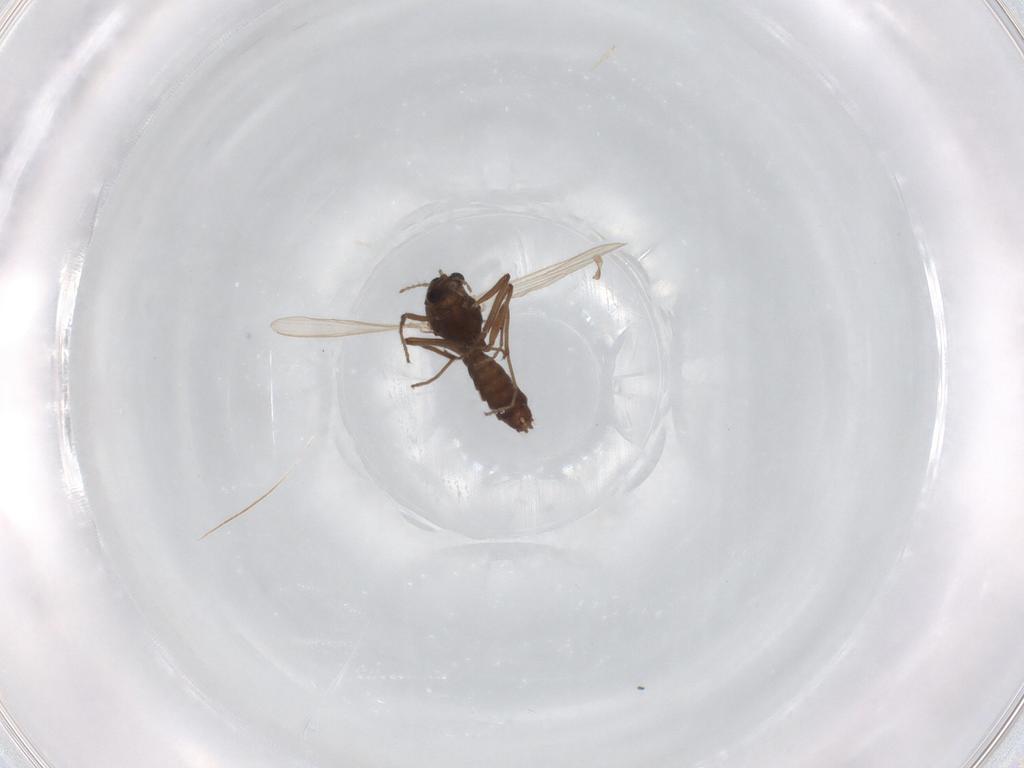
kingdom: Animalia
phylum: Arthropoda
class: Insecta
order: Diptera
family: Chironomidae
